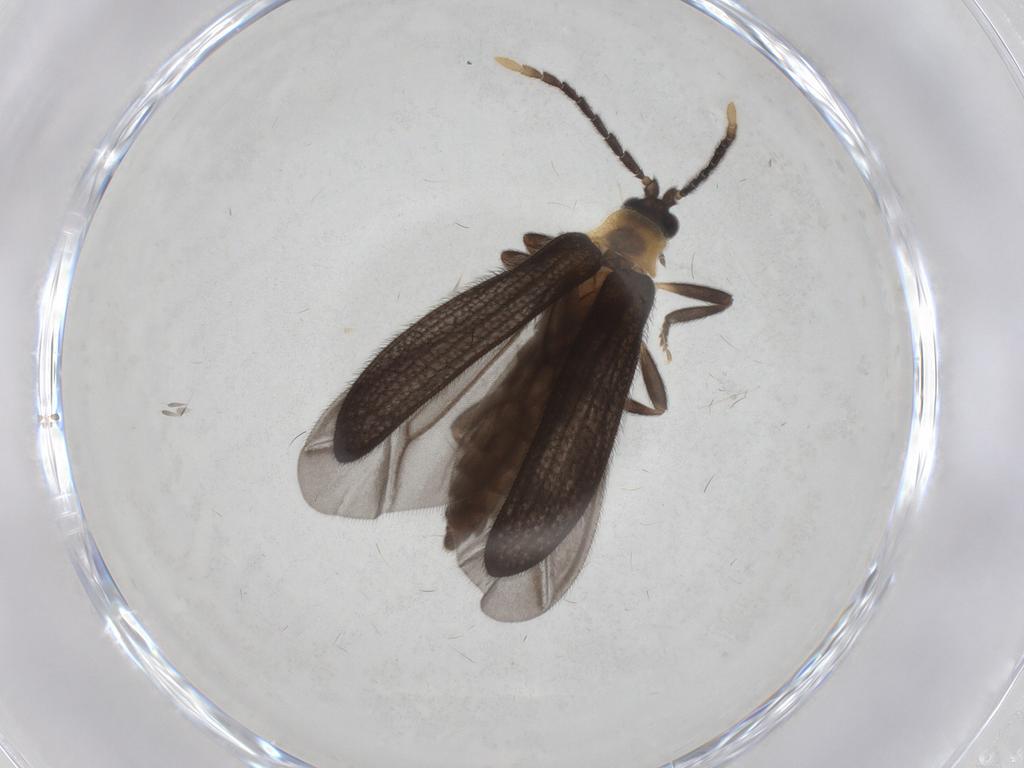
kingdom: Animalia
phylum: Arthropoda
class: Insecta
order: Coleoptera
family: Lycidae
